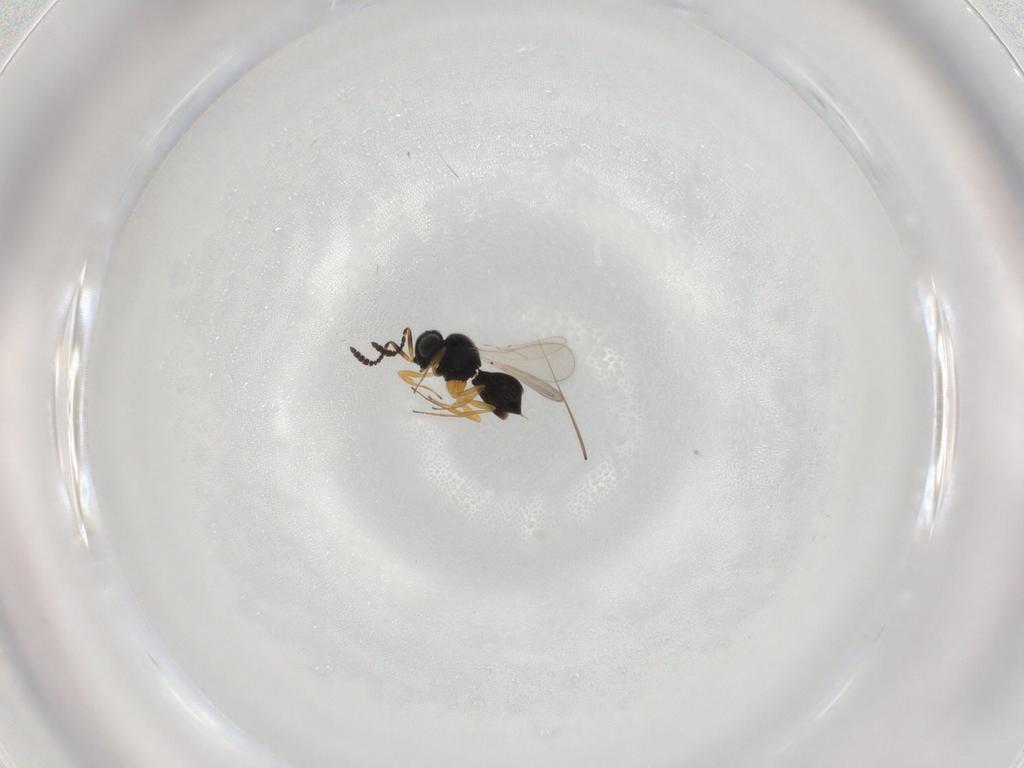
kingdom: Animalia
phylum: Arthropoda
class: Insecta
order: Hymenoptera
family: Scelionidae
